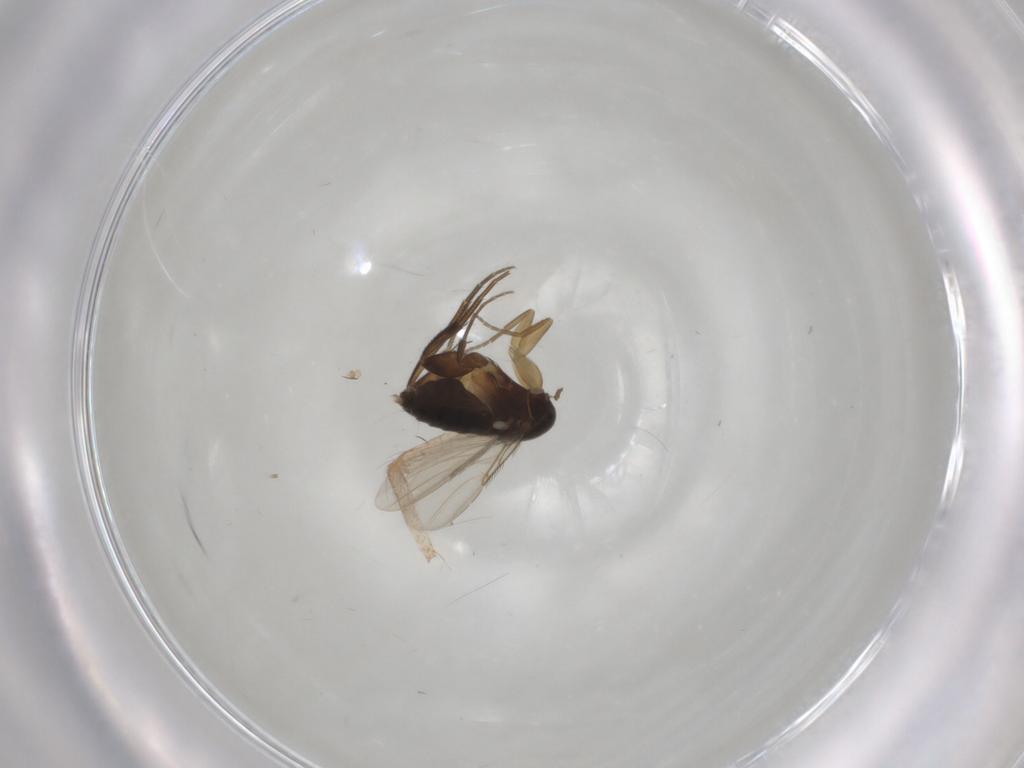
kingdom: Animalia
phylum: Arthropoda
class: Insecta
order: Diptera
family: Phoridae
